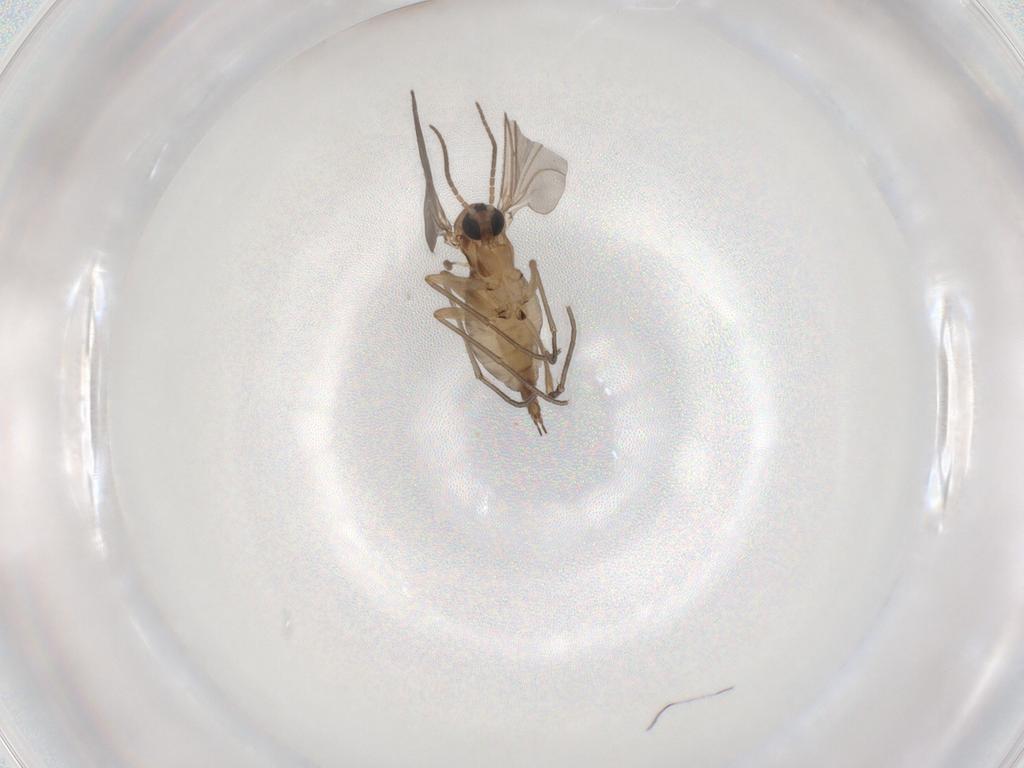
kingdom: Animalia
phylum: Arthropoda
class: Insecta
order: Diptera
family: Sciaridae
